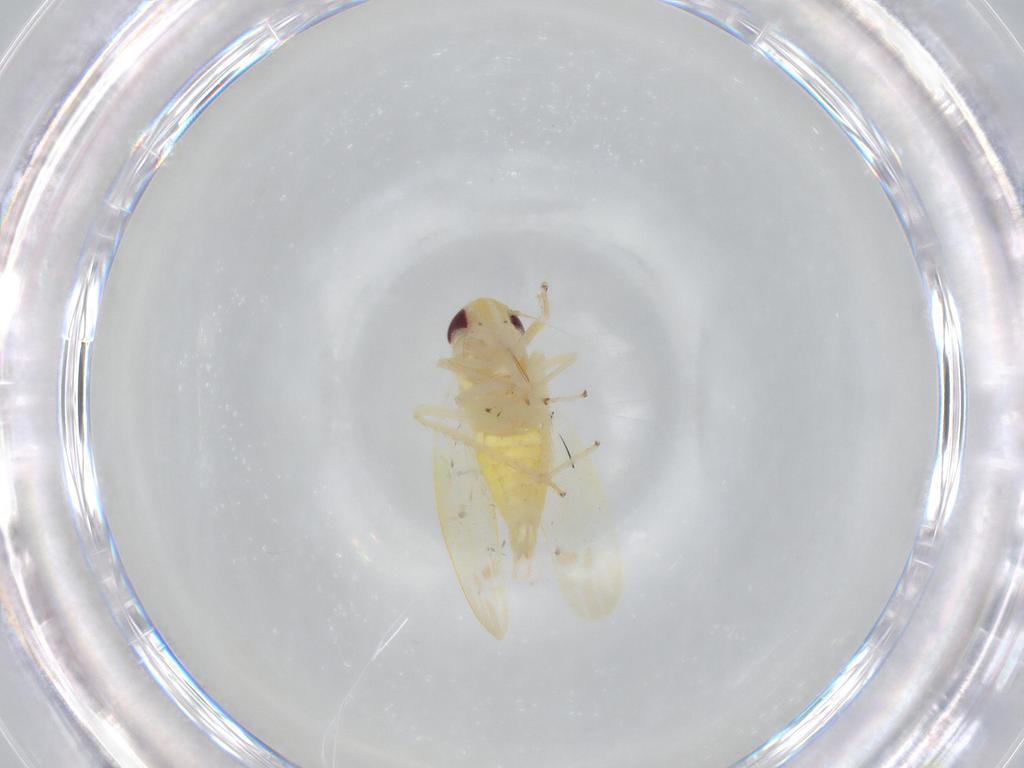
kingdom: Animalia
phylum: Arthropoda
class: Insecta
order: Hemiptera
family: Cicadellidae
